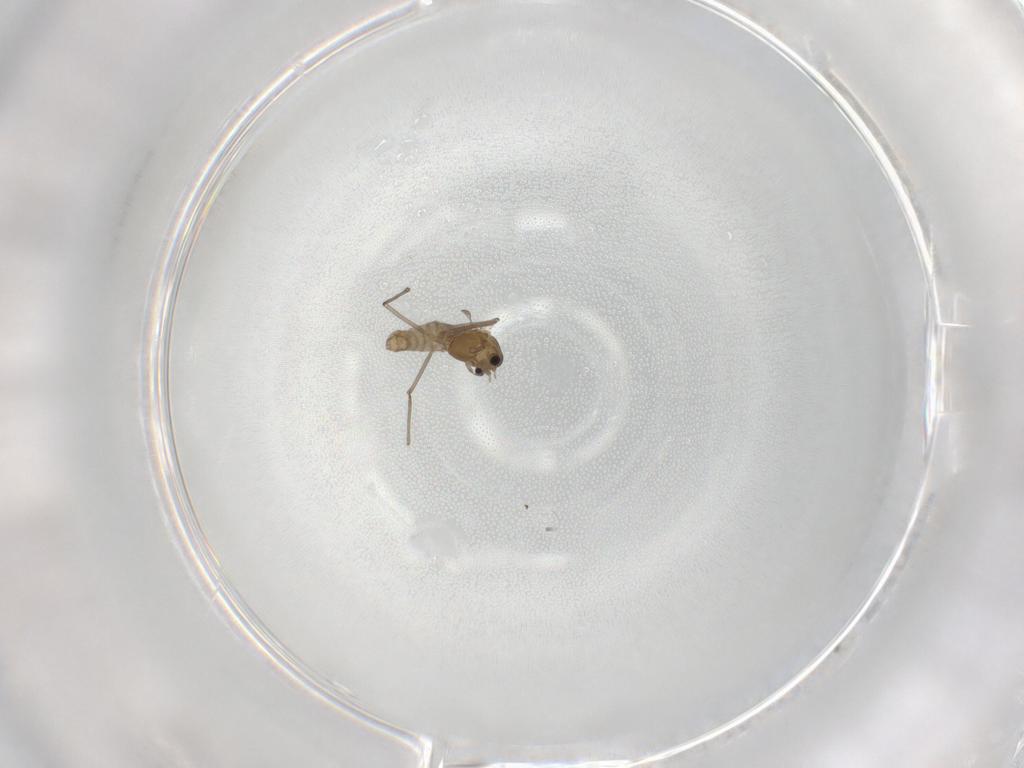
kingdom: Animalia
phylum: Arthropoda
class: Insecta
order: Diptera
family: Chironomidae
